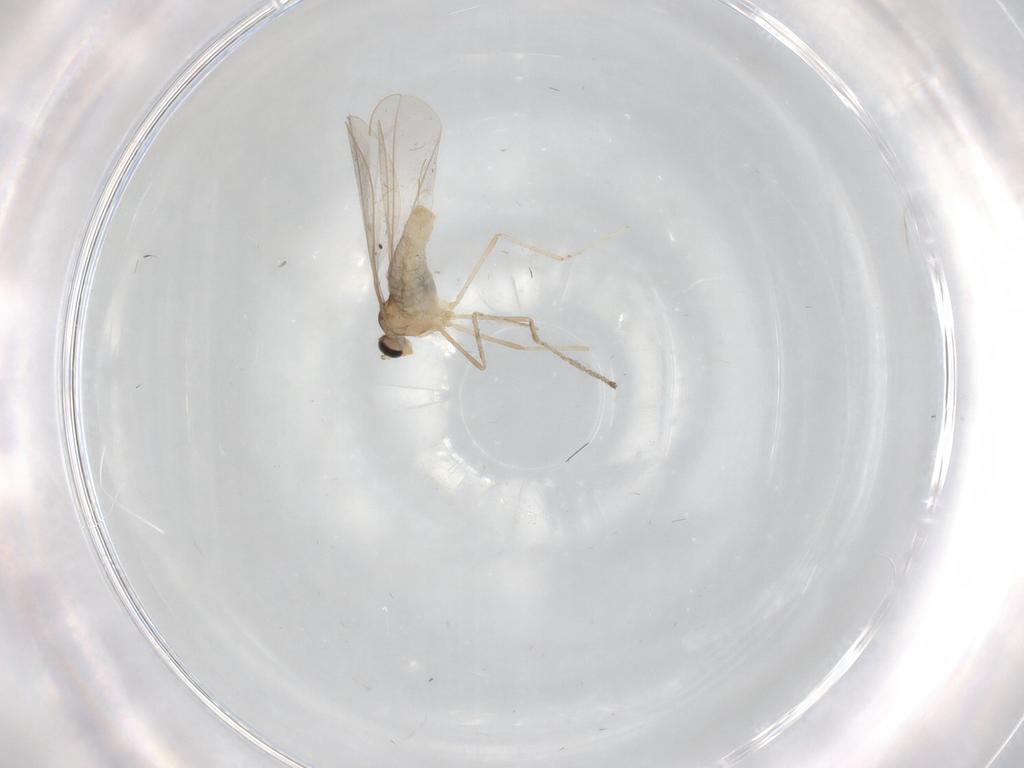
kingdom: Animalia
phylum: Arthropoda
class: Insecta
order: Diptera
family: Cecidomyiidae
